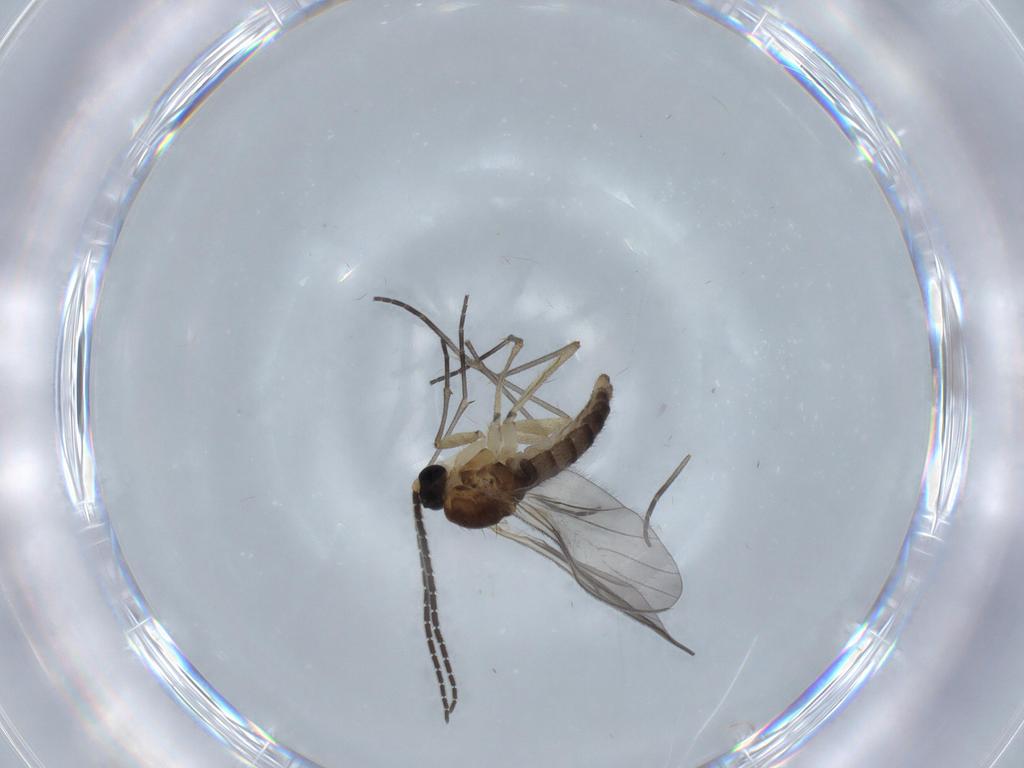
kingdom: Animalia
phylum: Arthropoda
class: Insecta
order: Diptera
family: Sciaridae
